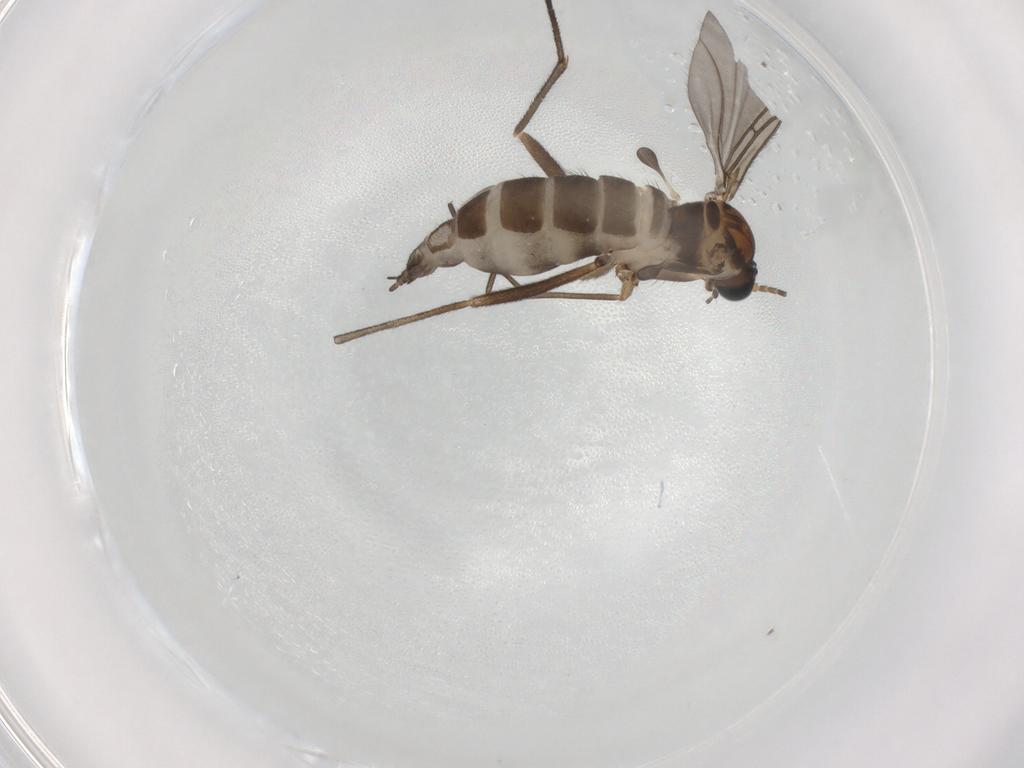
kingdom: Animalia
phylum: Arthropoda
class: Insecta
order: Diptera
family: Sciaridae
